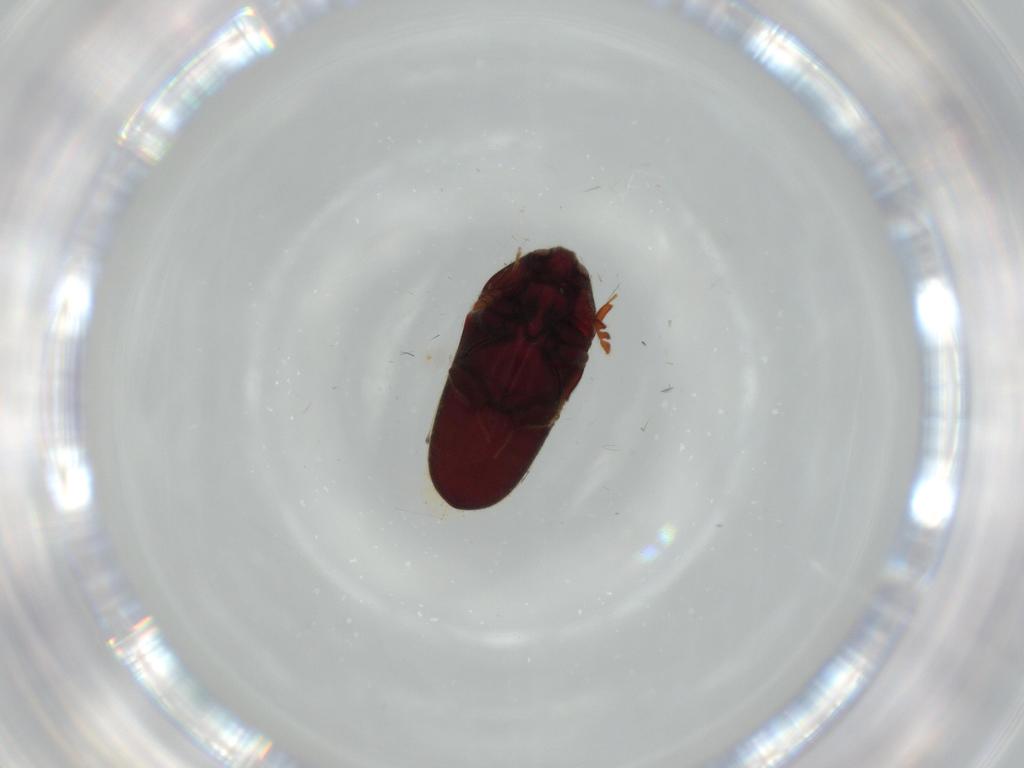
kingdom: Animalia
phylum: Arthropoda
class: Insecta
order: Coleoptera
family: Throscidae
